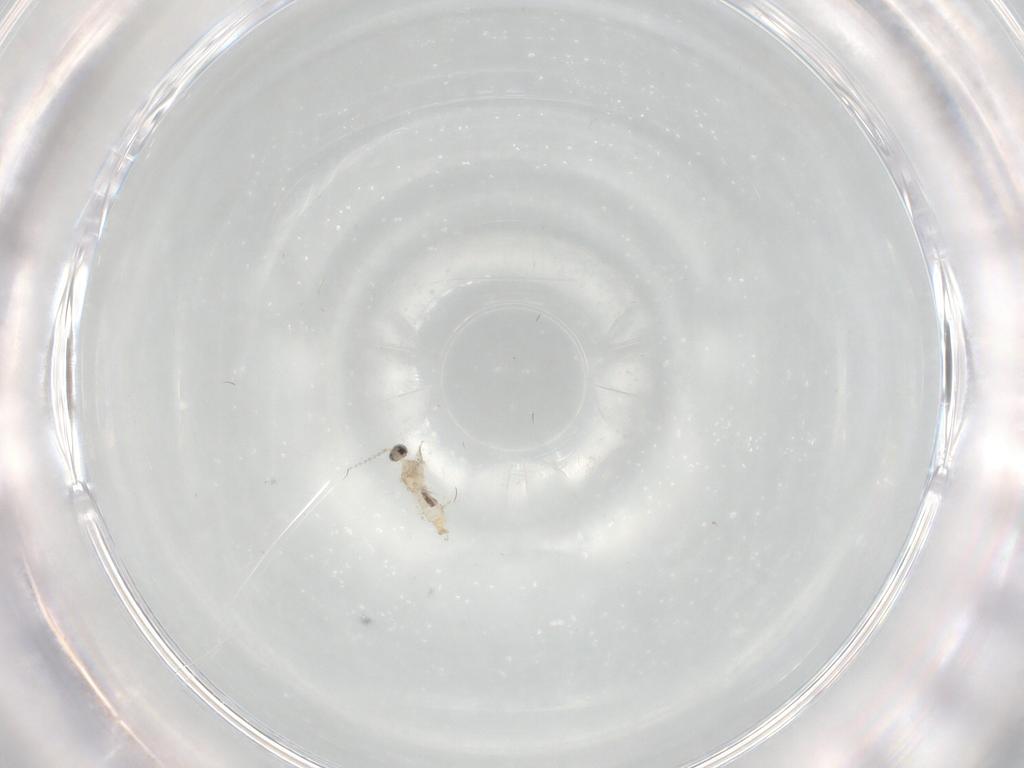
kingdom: Animalia
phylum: Arthropoda
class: Insecta
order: Diptera
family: Cecidomyiidae
